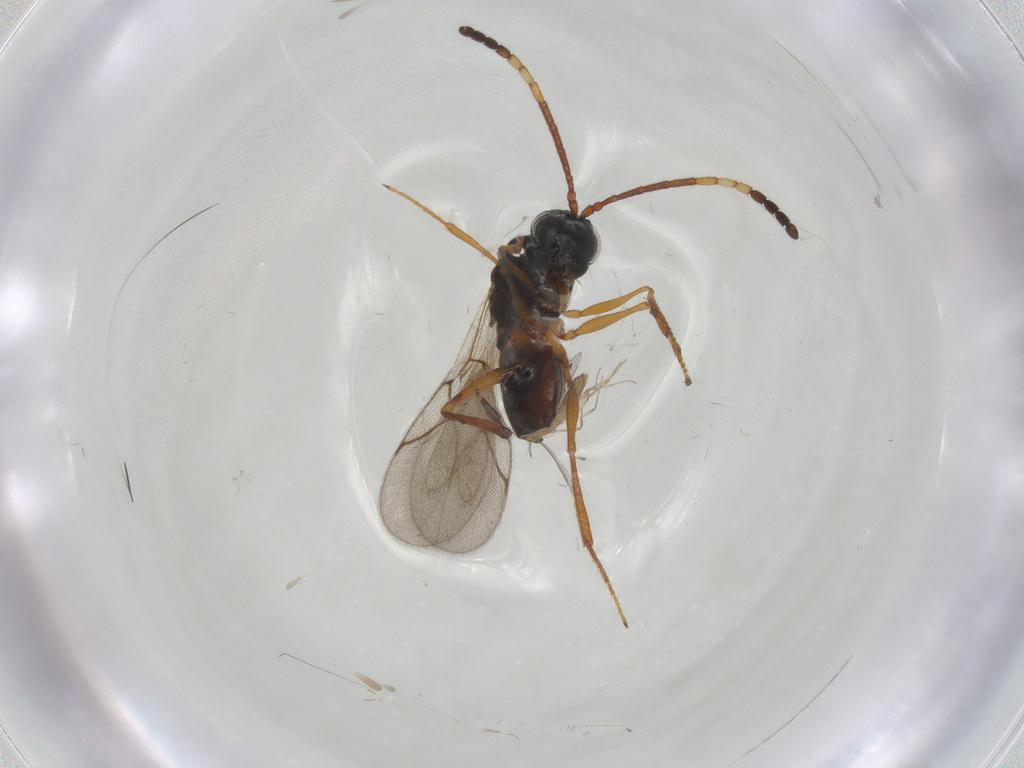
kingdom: Animalia
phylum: Arthropoda
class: Insecta
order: Hymenoptera
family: Figitidae
